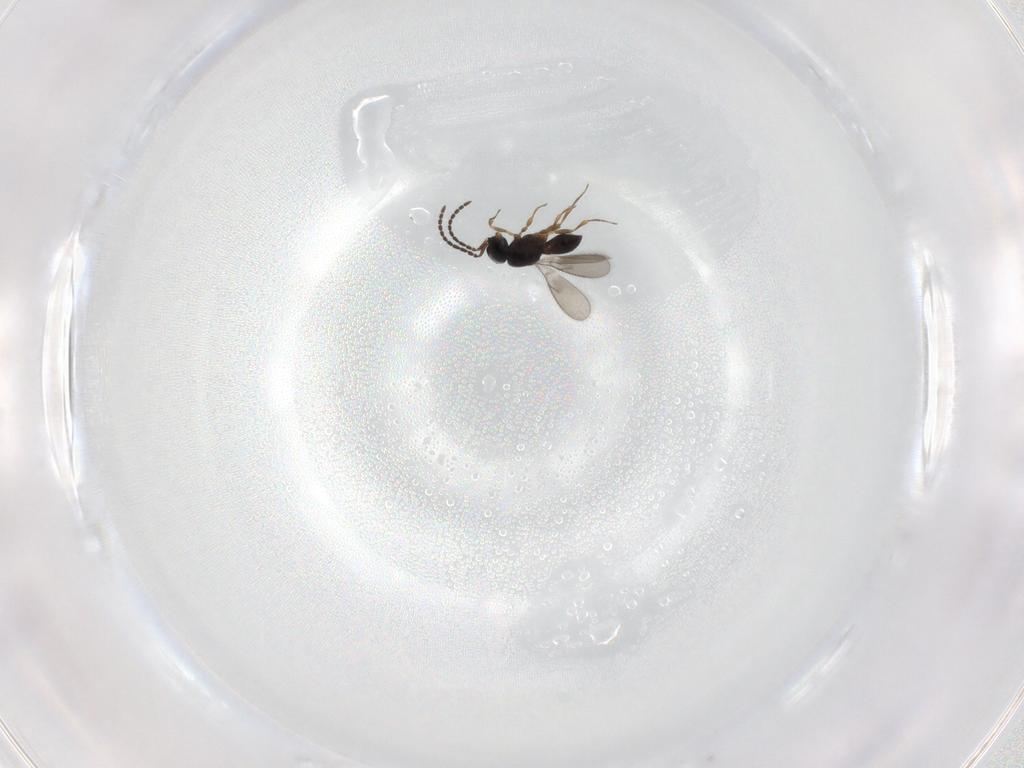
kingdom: Animalia
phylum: Arthropoda
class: Insecta
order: Hymenoptera
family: Scelionidae
